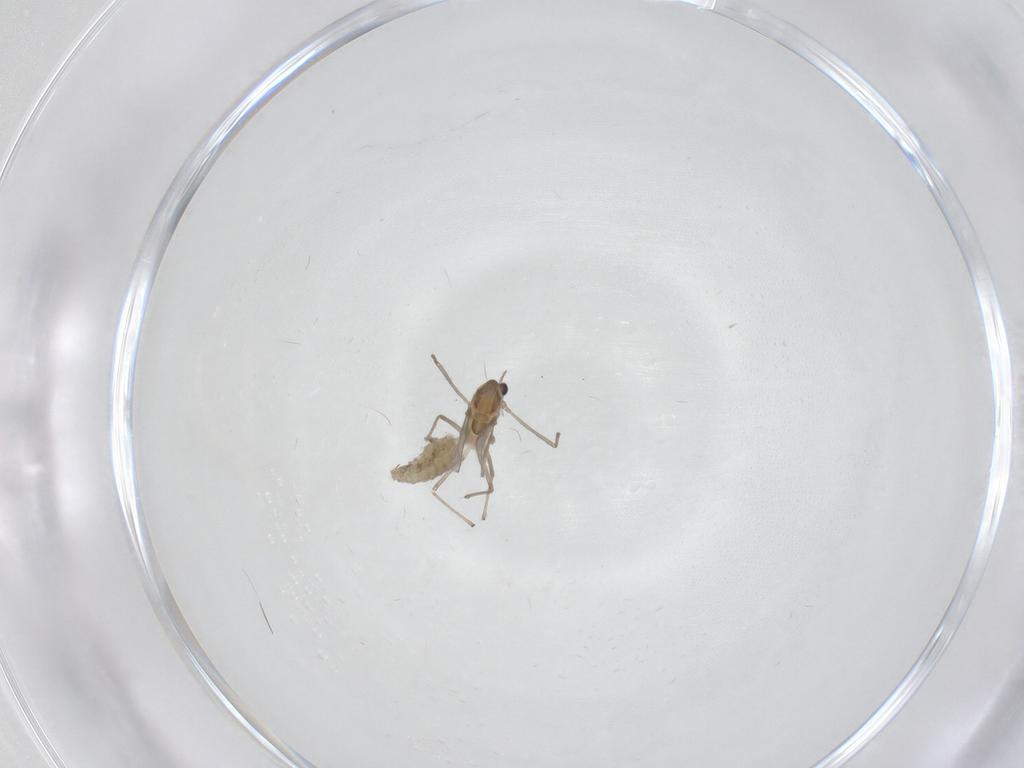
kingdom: Animalia
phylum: Arthropoda
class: Insecta
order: Diptera
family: Chironomidae
